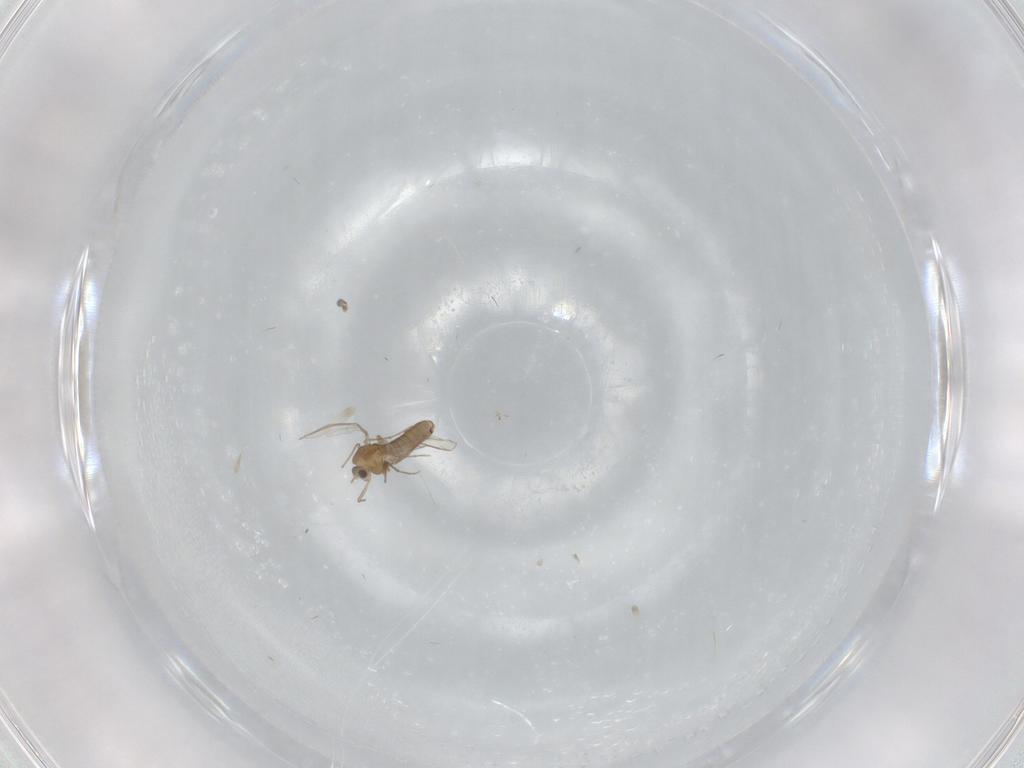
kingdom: Animalia
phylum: Arthropoda
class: Insecta
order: Diptera
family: Chironomidae
